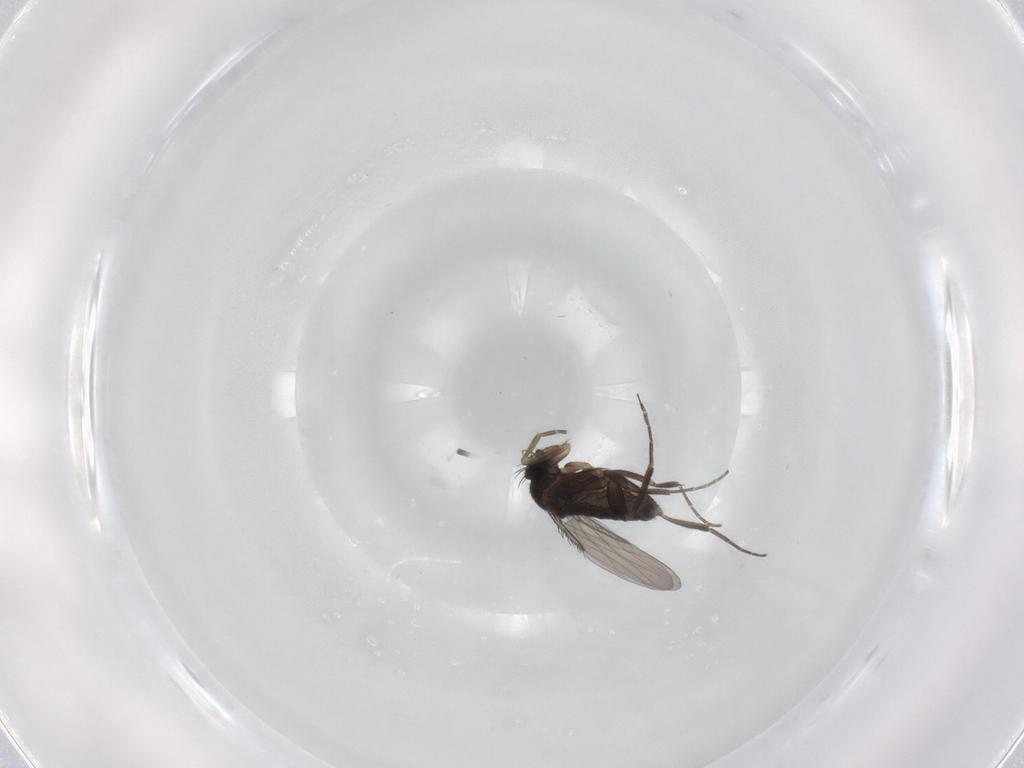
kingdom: Animalia
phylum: Arthropoda
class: Insecta
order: Diptera
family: Phoridae
